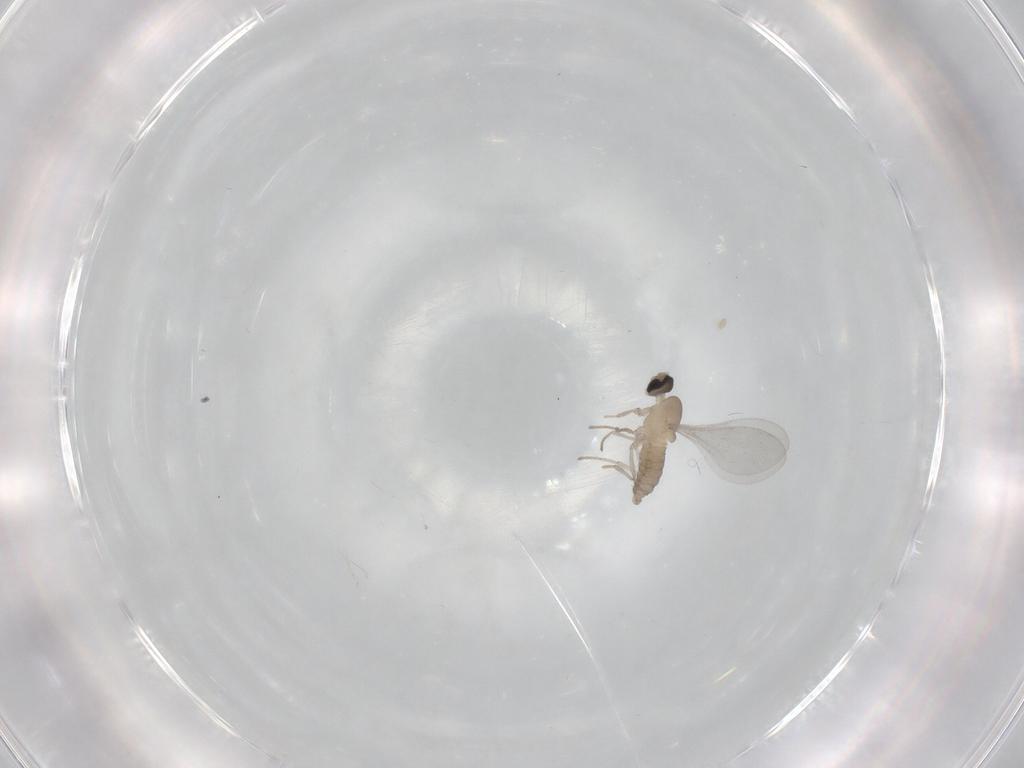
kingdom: Animalia
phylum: Arthropoda
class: Insecta
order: Diptera
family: Cecidomyiidae
